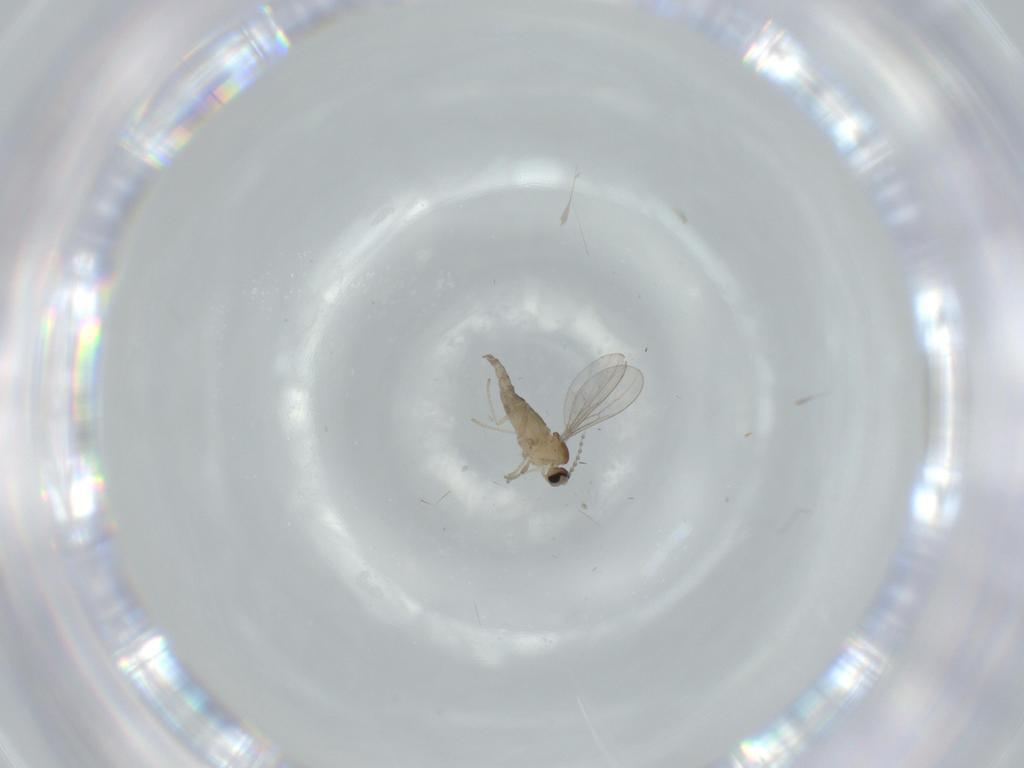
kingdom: Animalia
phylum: Arthropoda
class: Insecta
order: Diptera
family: Cecidomyiidae
